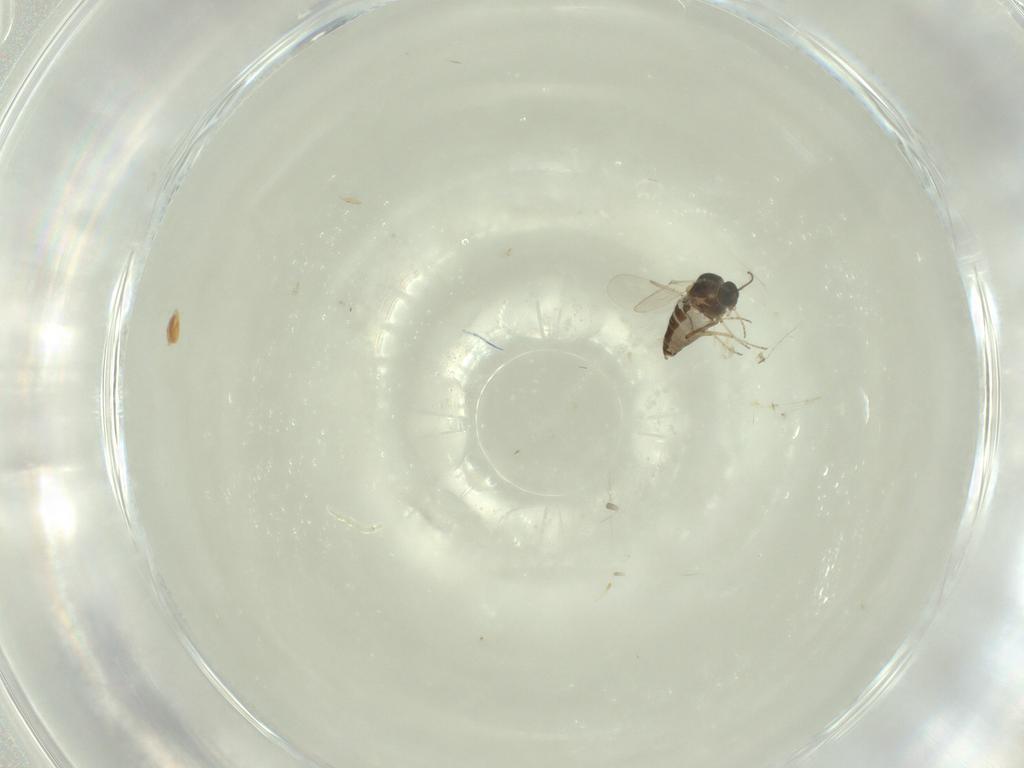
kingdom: Animalia
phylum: Arthropoda
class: Insecta
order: Diptera
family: Ceratopogonidae
